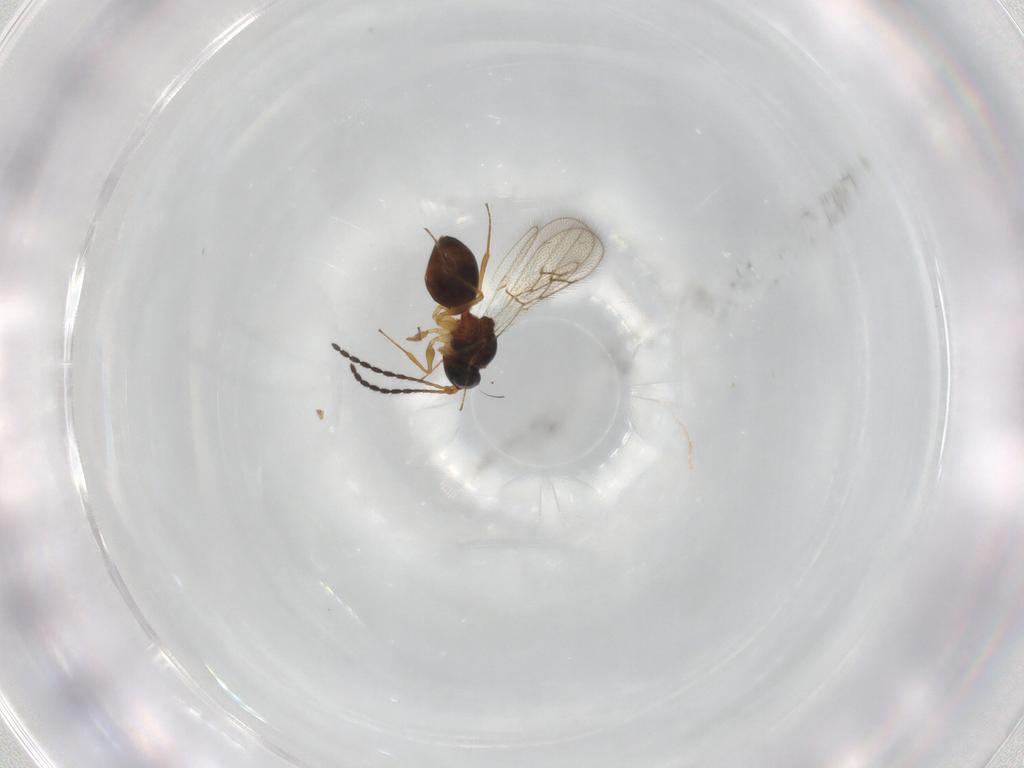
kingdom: Animalia
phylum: Arthropoda
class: Insecta
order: Hymenoptera
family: Figitidae
